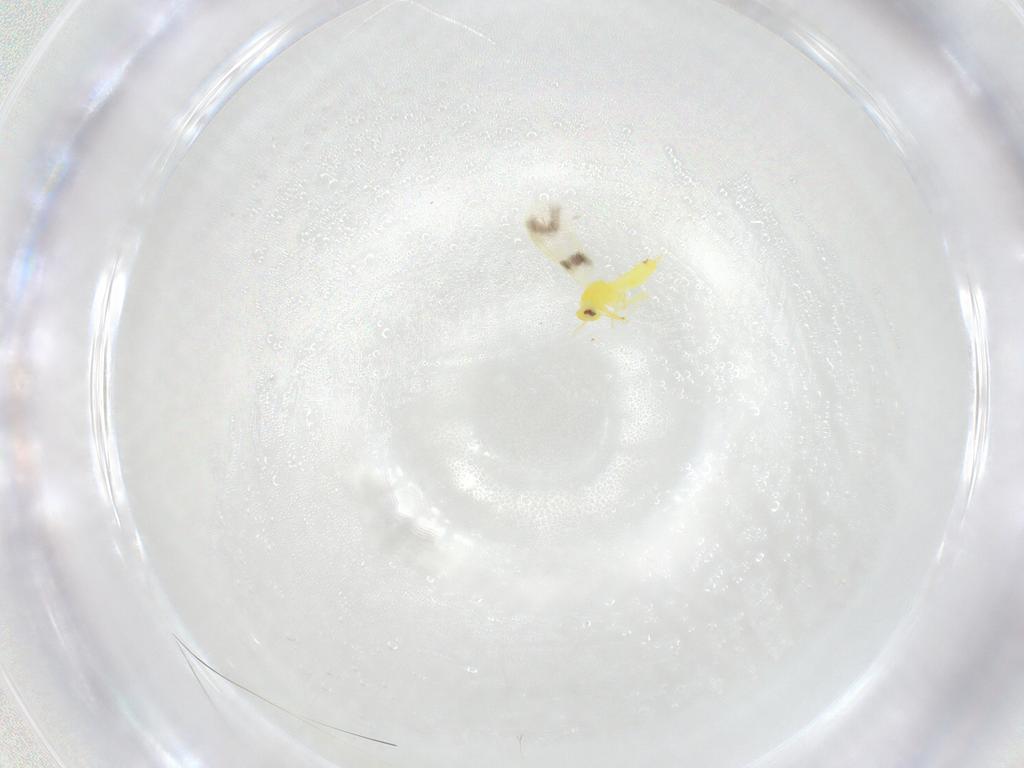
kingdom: Animalia
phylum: Arthropoda
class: Insecta
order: Hemiptera
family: Aleyrodidae
